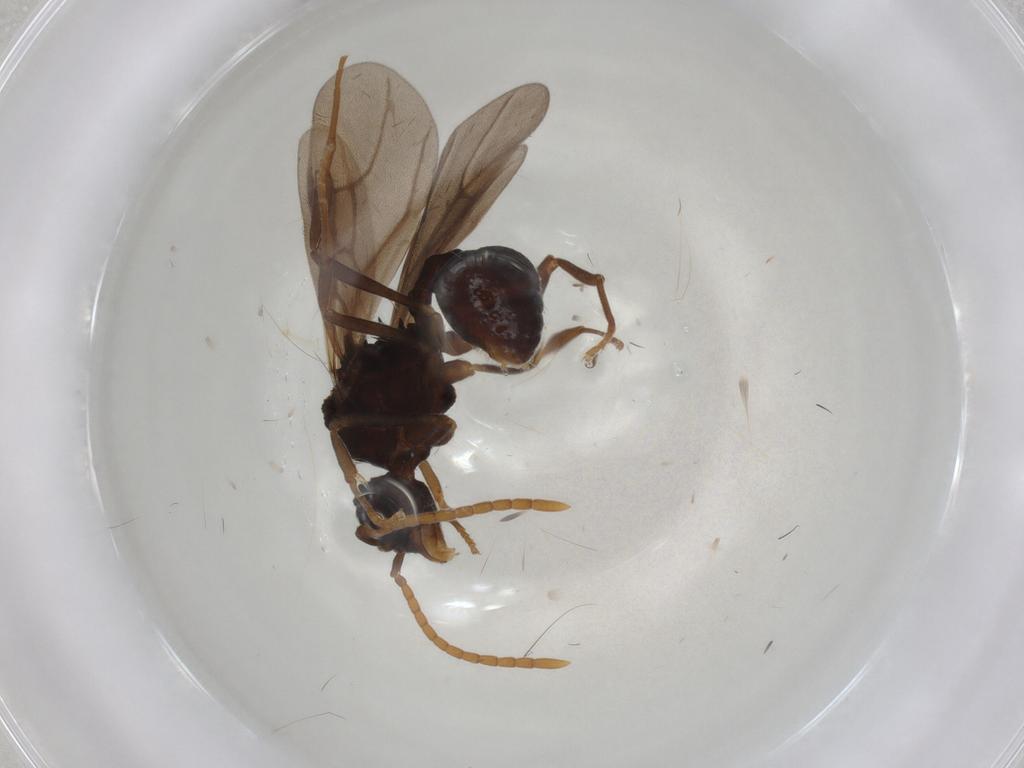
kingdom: Animalia
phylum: Arthropoda
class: Insecta
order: Hymenoptera
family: Formicidae
